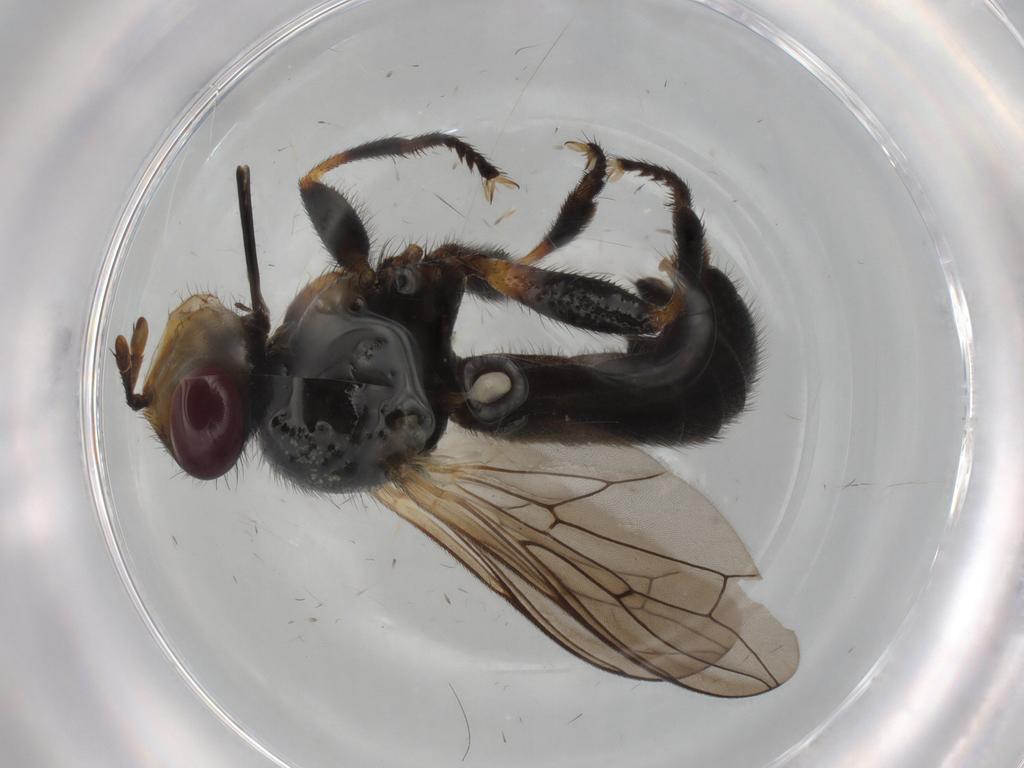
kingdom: Animalia
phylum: Arthropoda
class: Insecta
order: Diptera
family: Conopidae
